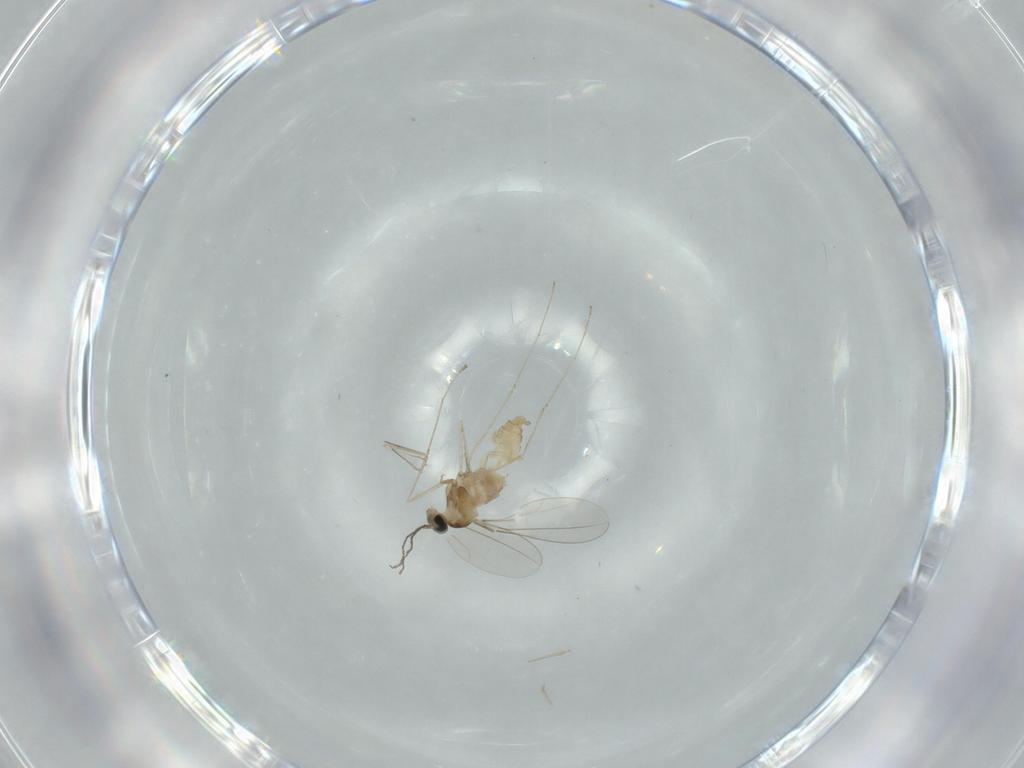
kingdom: Animalia
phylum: Arthropoda
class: Insecta
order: Diptera
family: Cecidomyiidae
